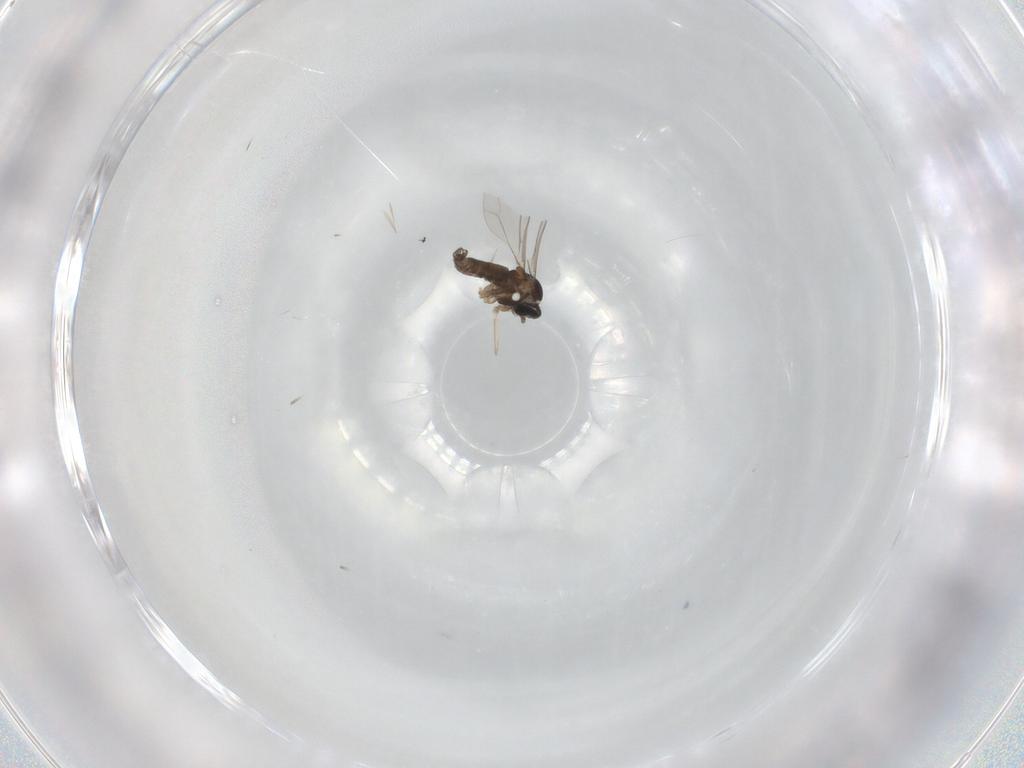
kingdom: Animalia
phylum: Arthropoda
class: Insecta
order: Diptera
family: Cecidomyiidae
